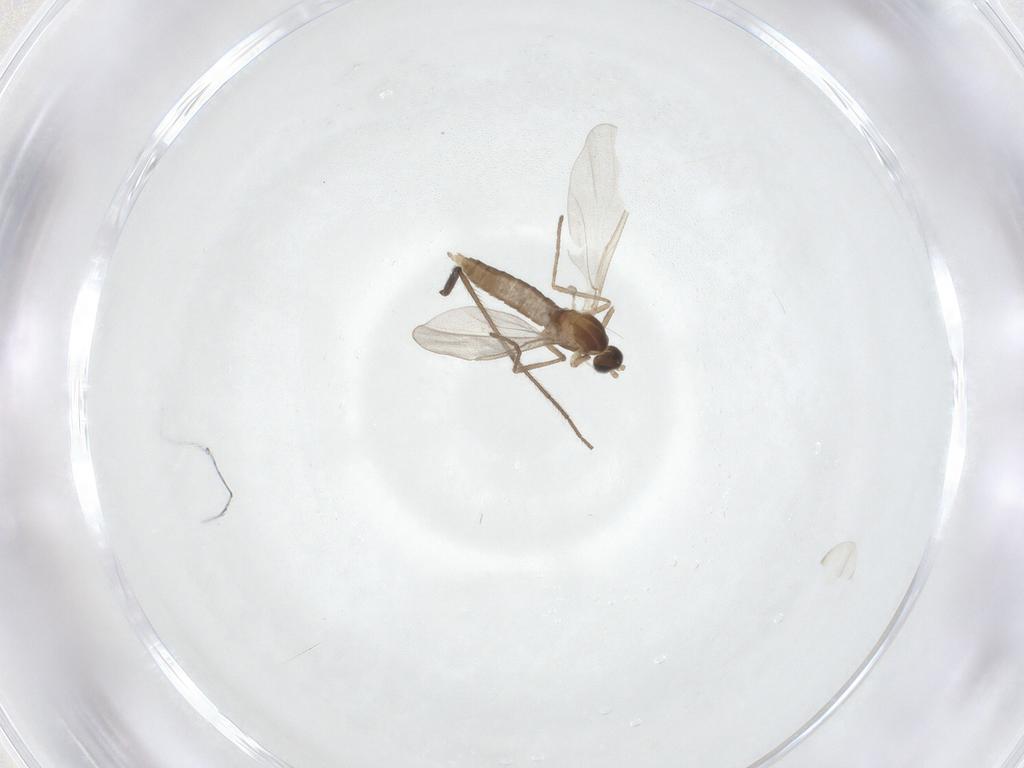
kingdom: Animalia
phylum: Arthropoda
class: Insecta
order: Diptera
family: Cecidomyiidae
